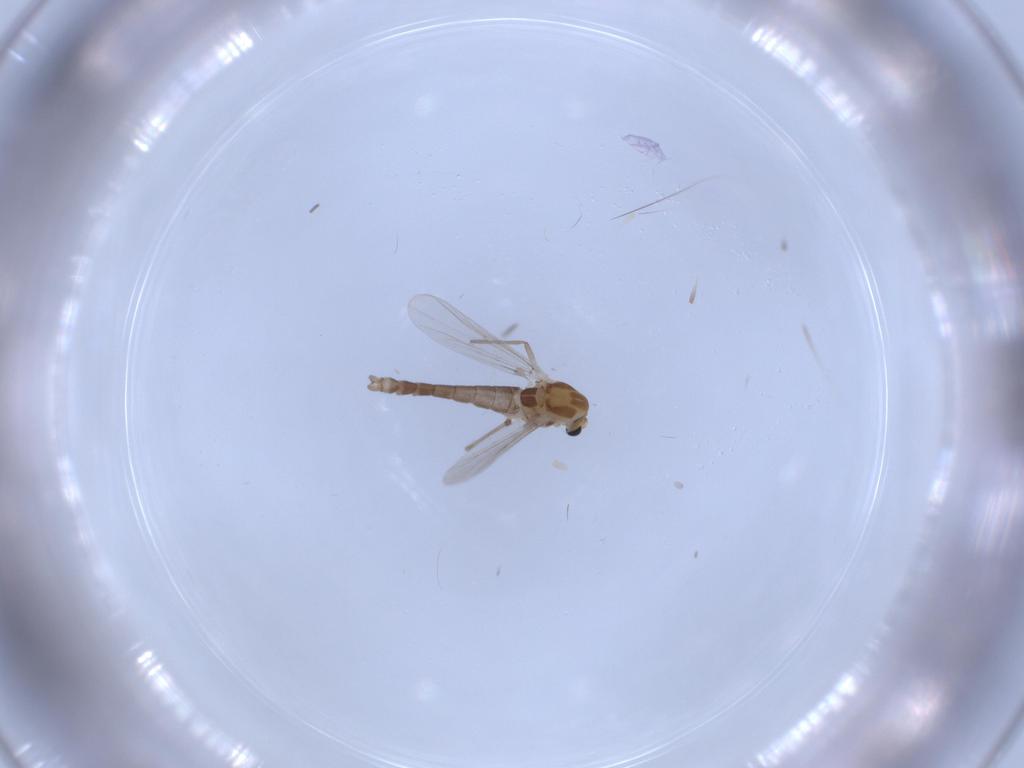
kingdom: Animalia
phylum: Arthropoda
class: Insecta
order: Diptera
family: Chironomidae
